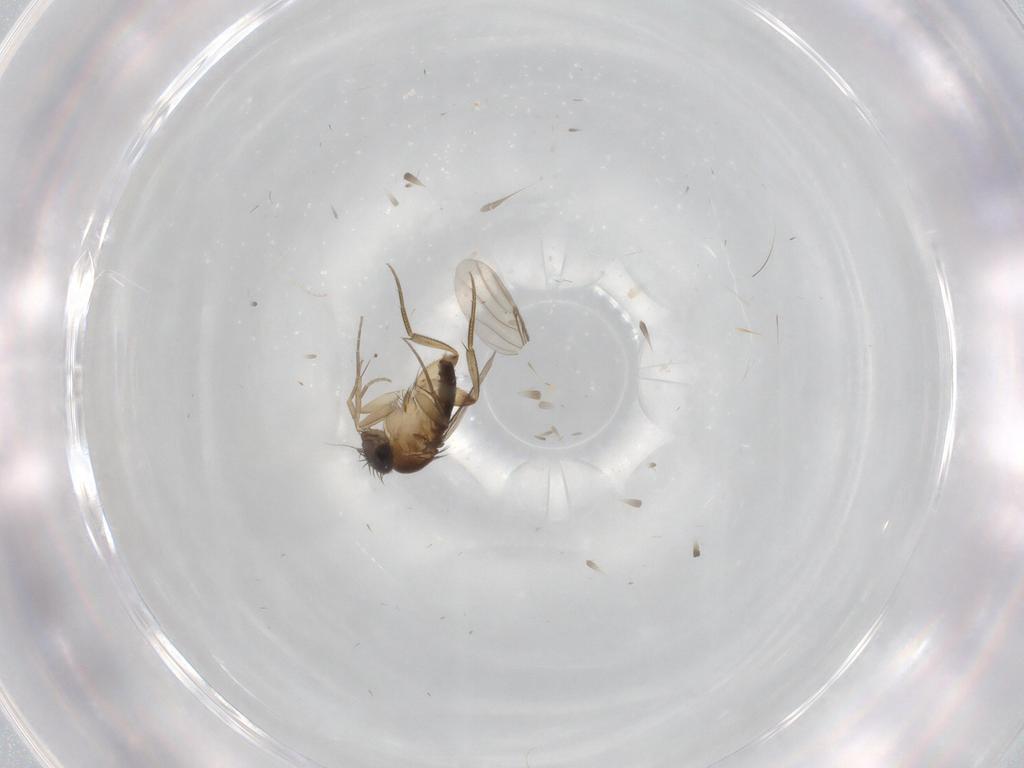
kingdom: Animalia
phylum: Arthropoda
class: Insecta
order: Diptera
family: Phoridae
